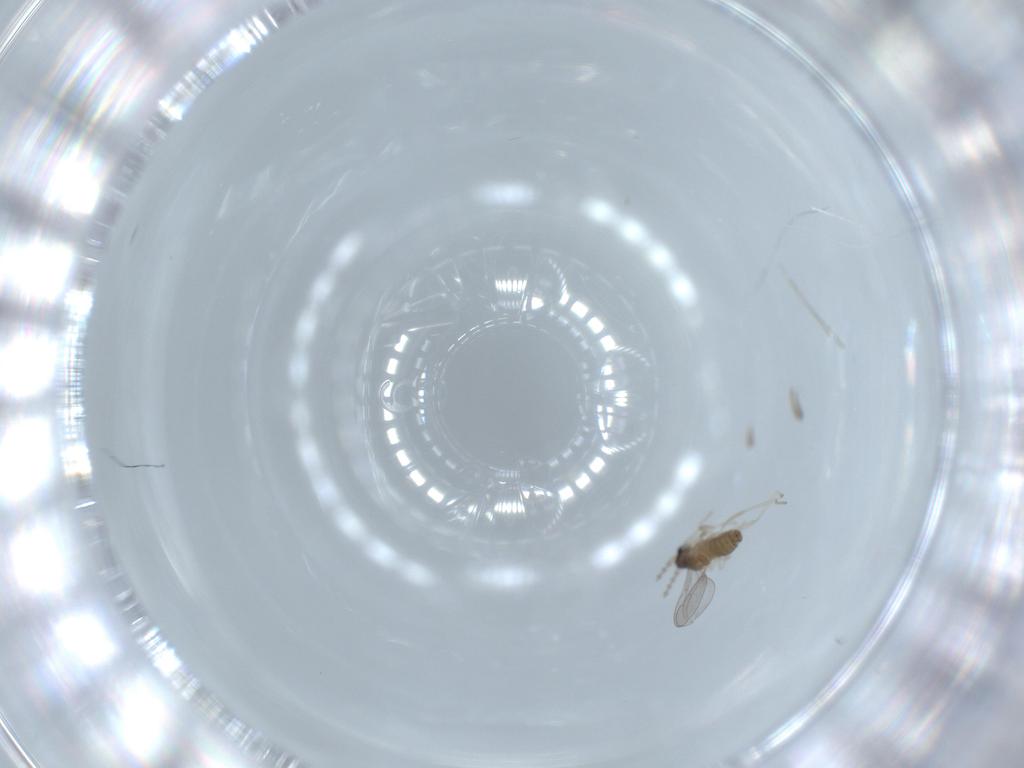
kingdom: Animalia
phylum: Arthropoda
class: Insecta
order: Diptera
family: Cecidomyiidae
